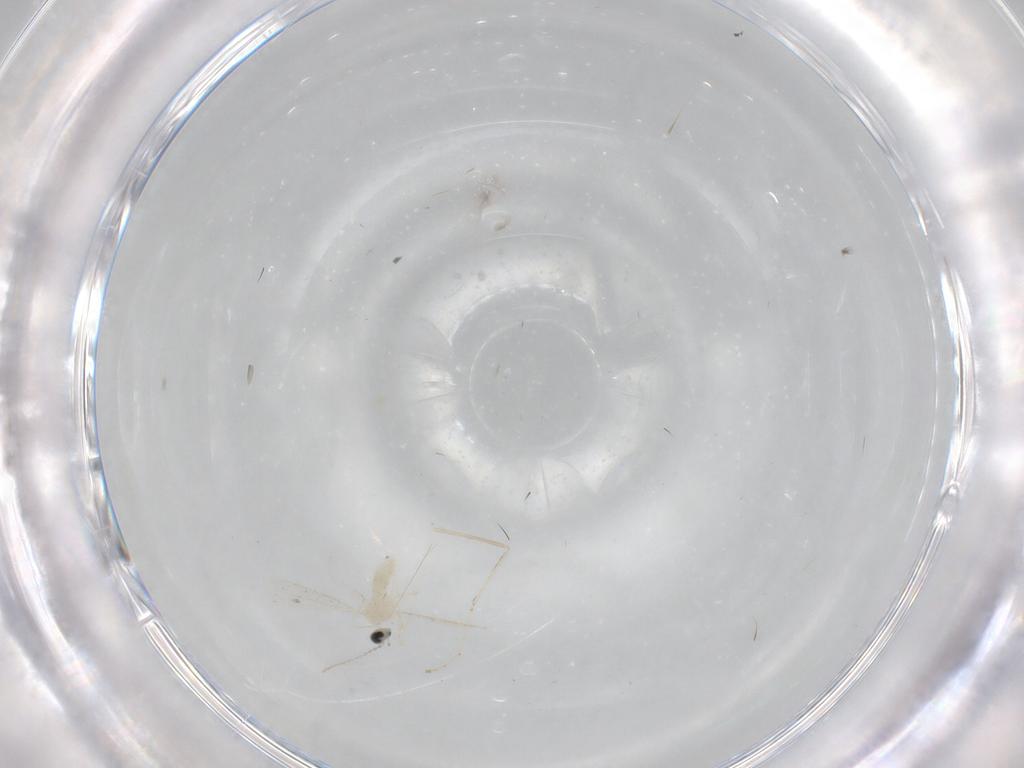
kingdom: Animalia
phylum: Arthropoda
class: Insecta
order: Diptera
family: Cecidomyiidae
